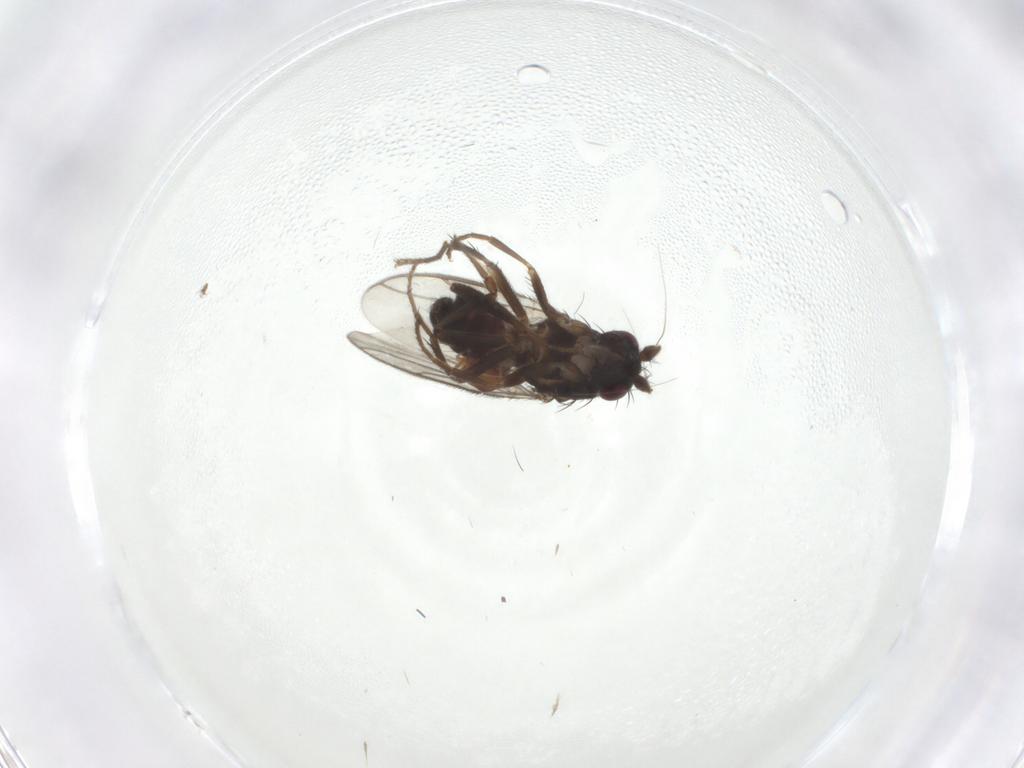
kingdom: Animalia
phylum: Arthropoda
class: Insecta
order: Diptera
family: Sphaeroceridae
